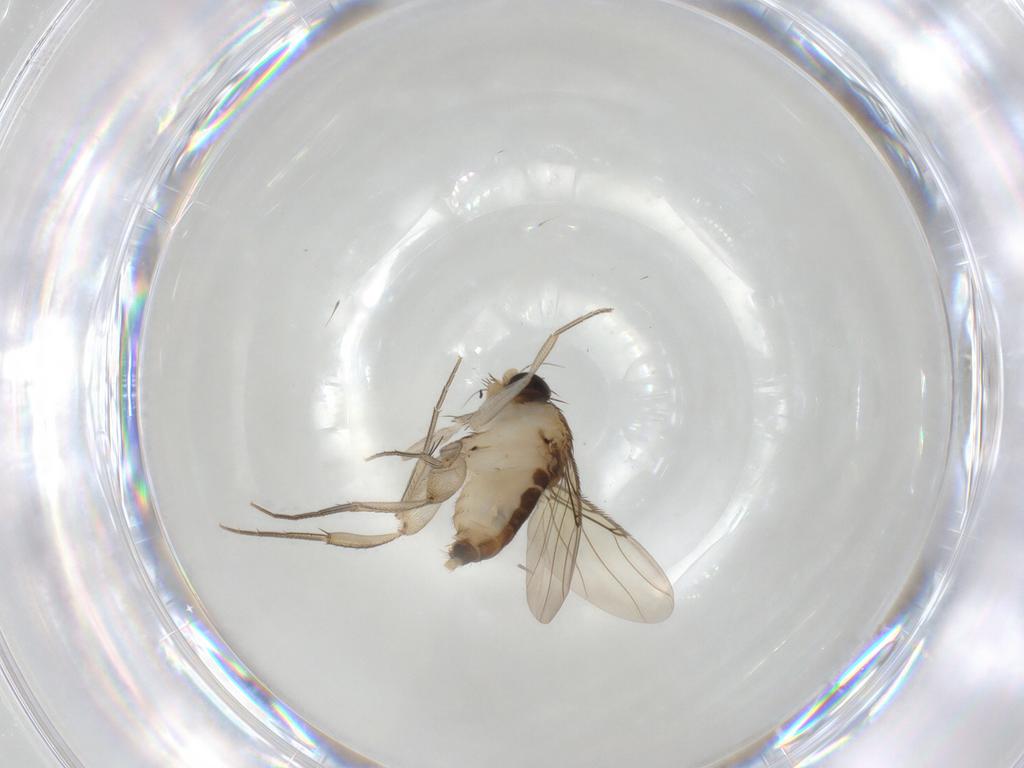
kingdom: Animalia
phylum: Arthropoda
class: Insecta
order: Diptera
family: Phoridae
